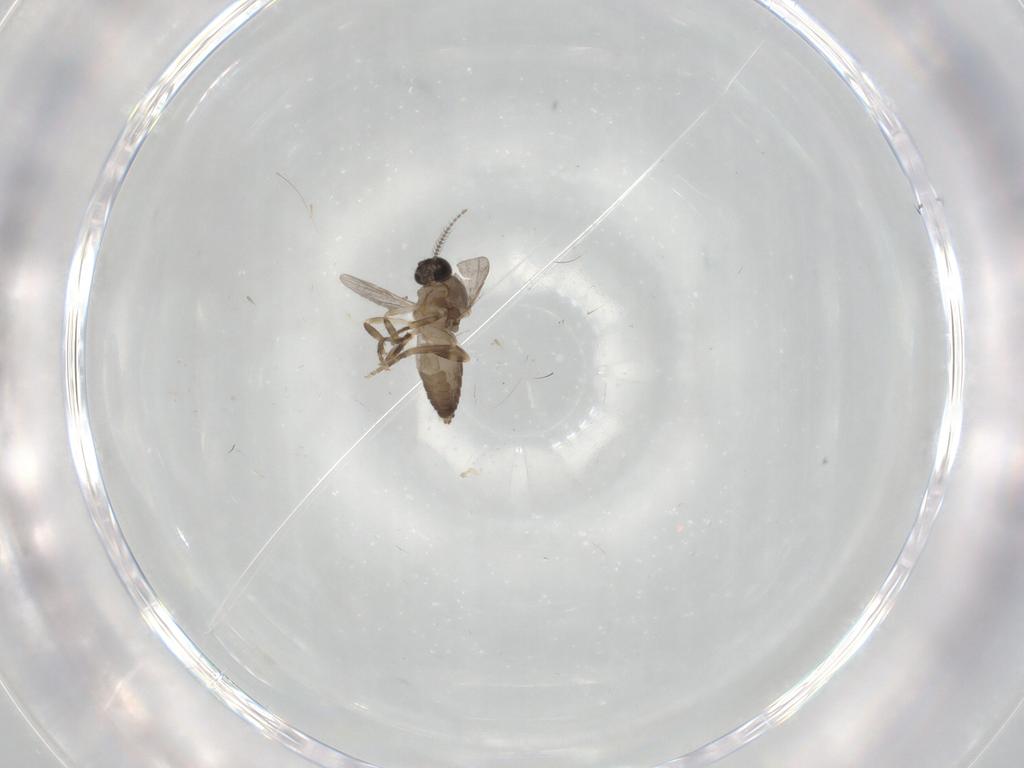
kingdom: Animalia
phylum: Arthropoda
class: Insecta
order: Diptera
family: Ceratopogonidae
